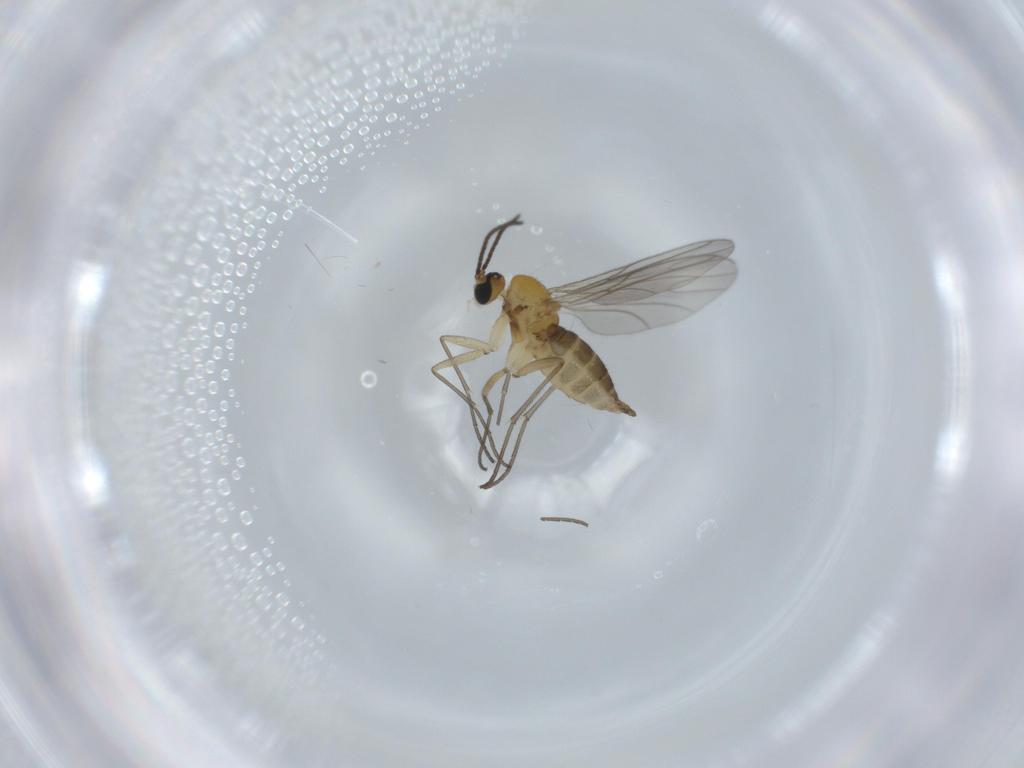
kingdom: Animalia
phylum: Arthropoda
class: Insecta
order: Diptera
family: Sciaridae
